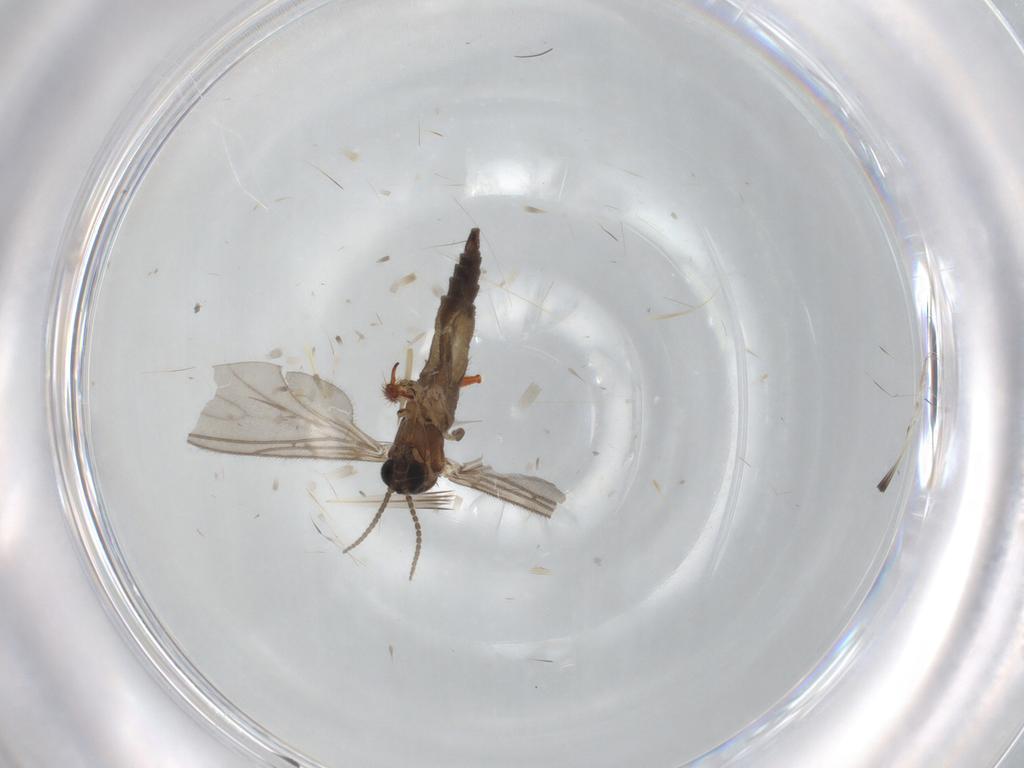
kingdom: Animalia
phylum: Arthropoda
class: Insecta
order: Diptera
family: Sciaridae
